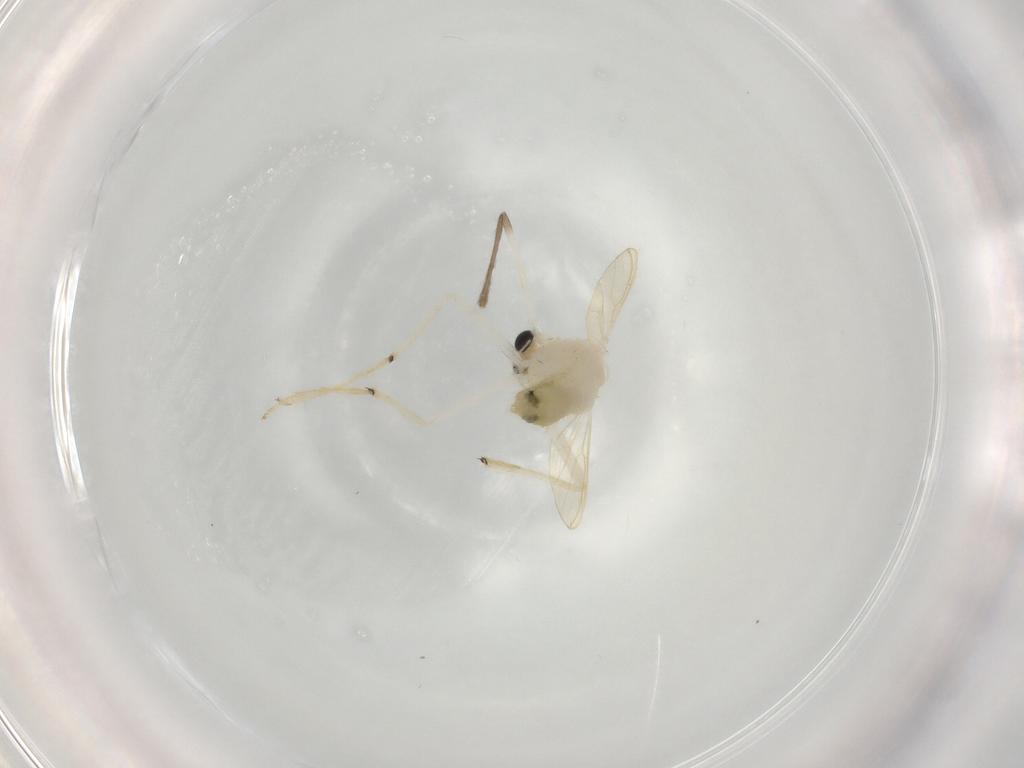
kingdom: Animalia
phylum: Arthropoda
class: Insecta
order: Diptera
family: Chironomidae
